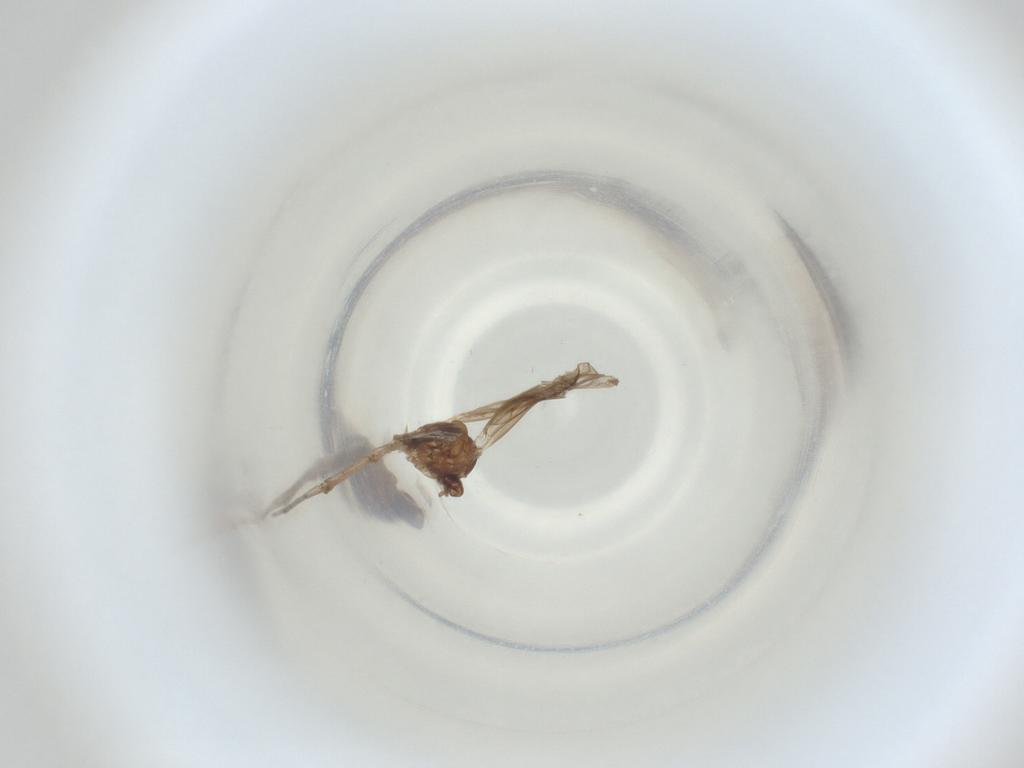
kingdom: Animalia
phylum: Arthropoda
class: Insecta
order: Diptera
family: Cecidomyiidae
